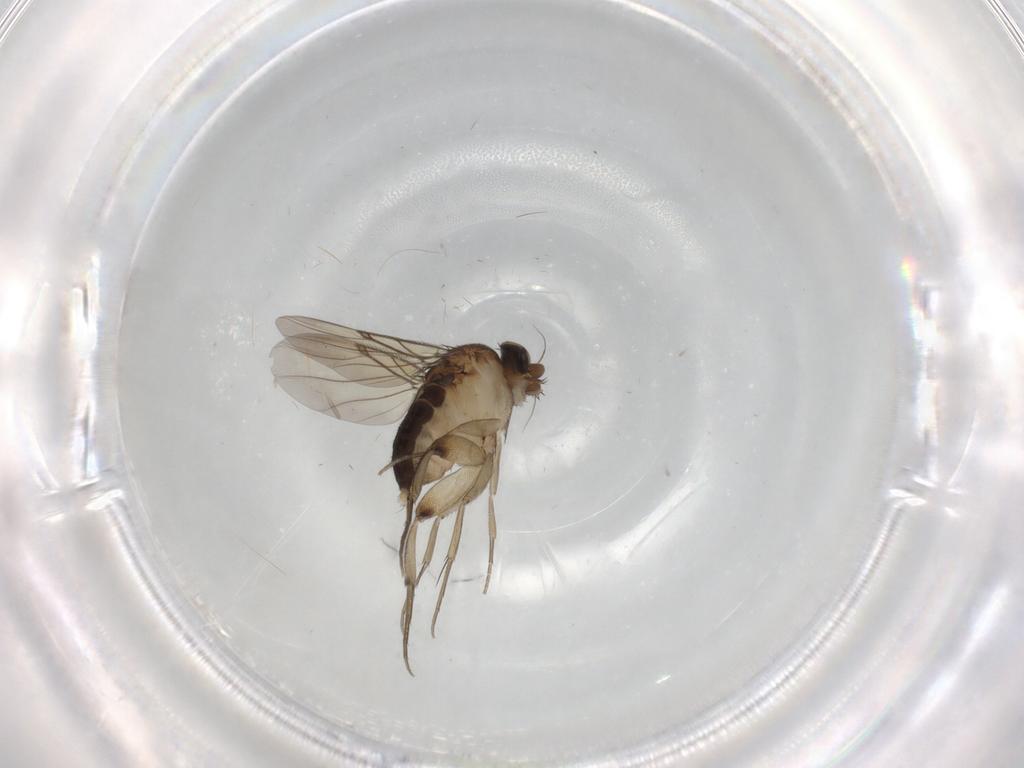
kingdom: Animalia
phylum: Arthropoda
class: Insecta
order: Diptera
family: Phoridae
